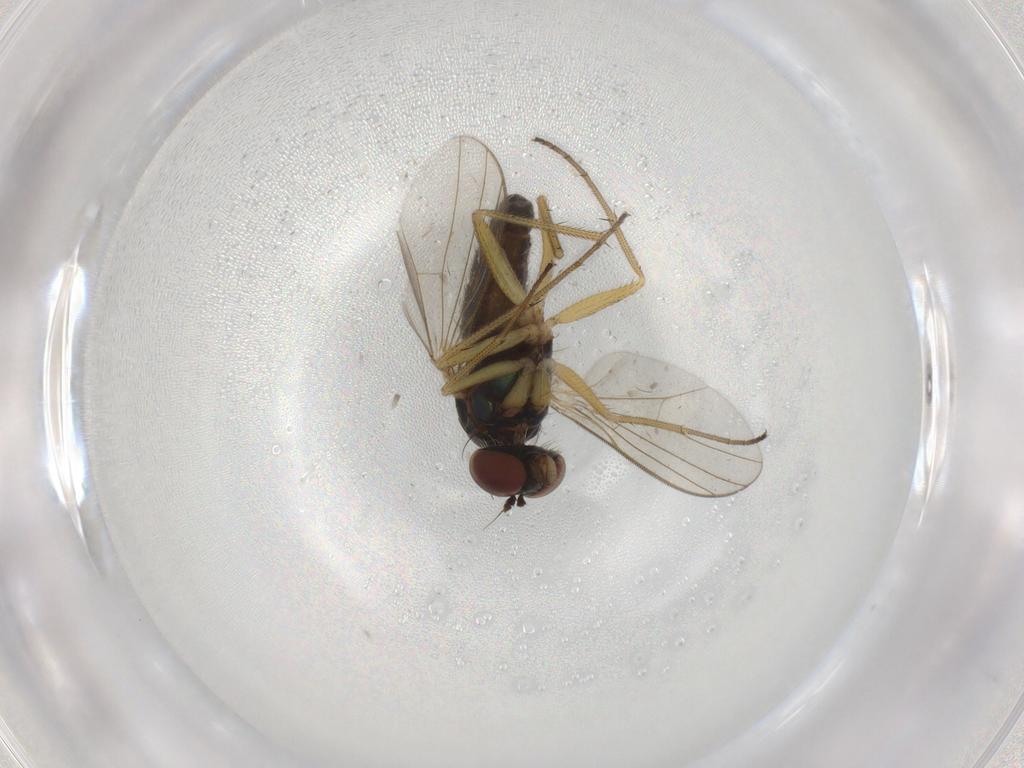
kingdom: Animalia
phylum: Arthropoda
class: Insecta
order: Diptera
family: Dolichopodidae
